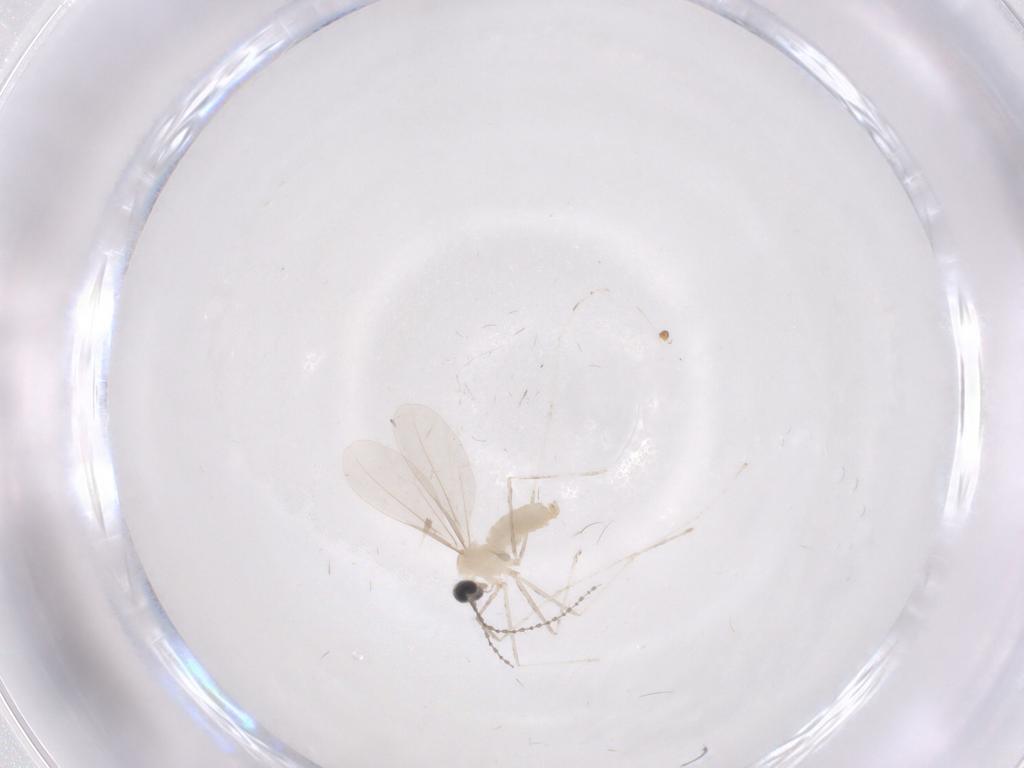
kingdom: Animalia
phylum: Arthropoda
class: Insecta
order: Diptera
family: Cecidomyiidae
